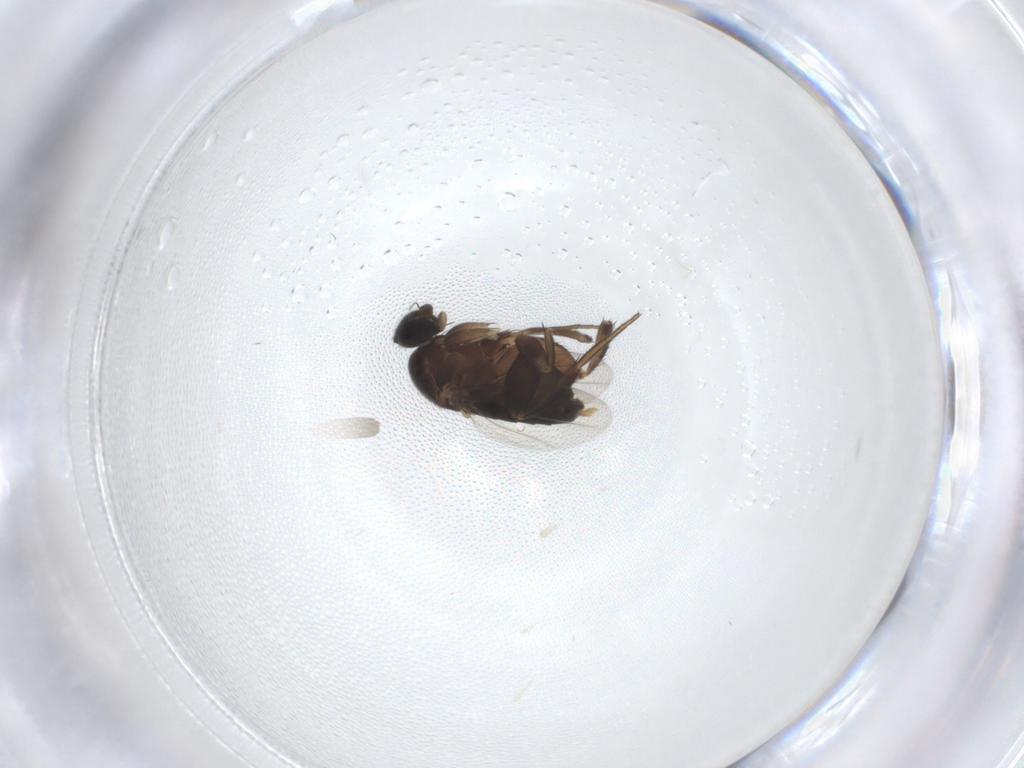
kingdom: Animalia
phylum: Arthropoda
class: Insecta
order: Diptera
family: Phoridae
